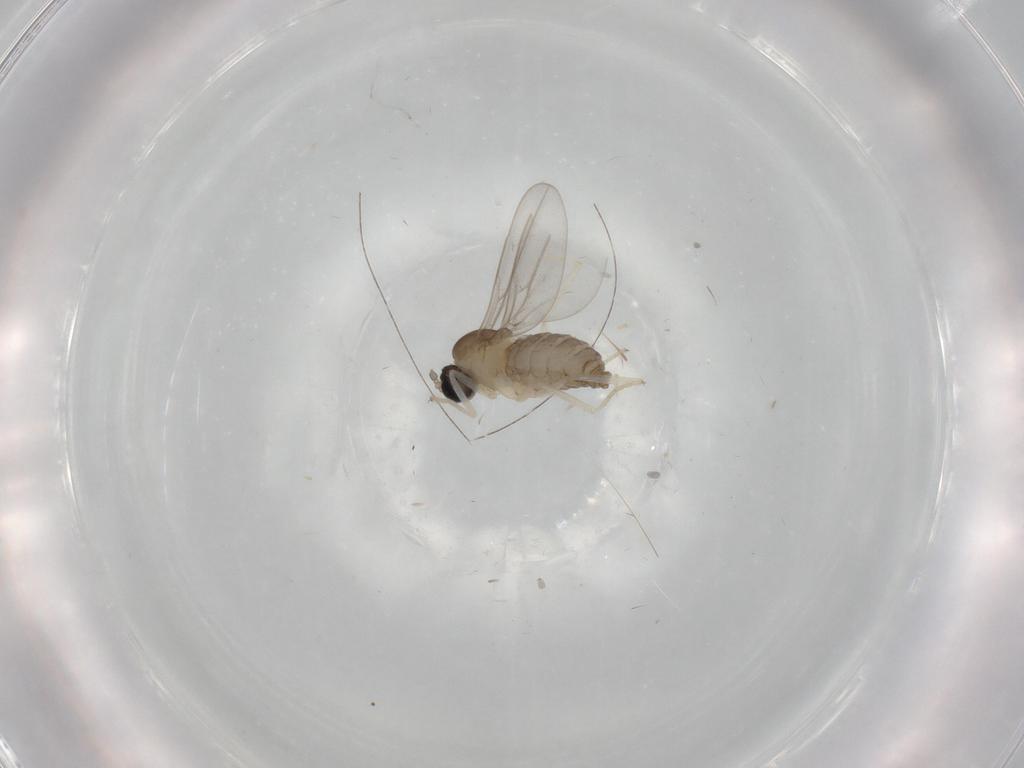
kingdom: Animalia
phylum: Arthropoda
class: Insecta
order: Diptera
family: Cecidomyiidae
